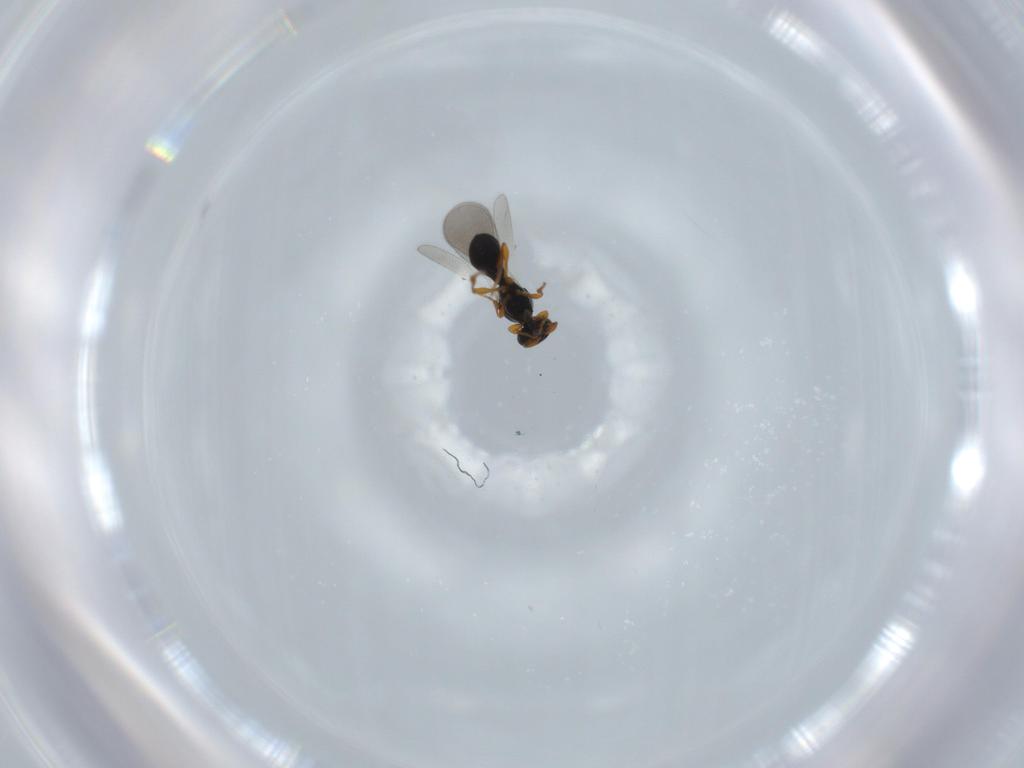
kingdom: Animalia
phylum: Arthropoda
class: Insecta
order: Hymenoptera
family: Platygastridae
